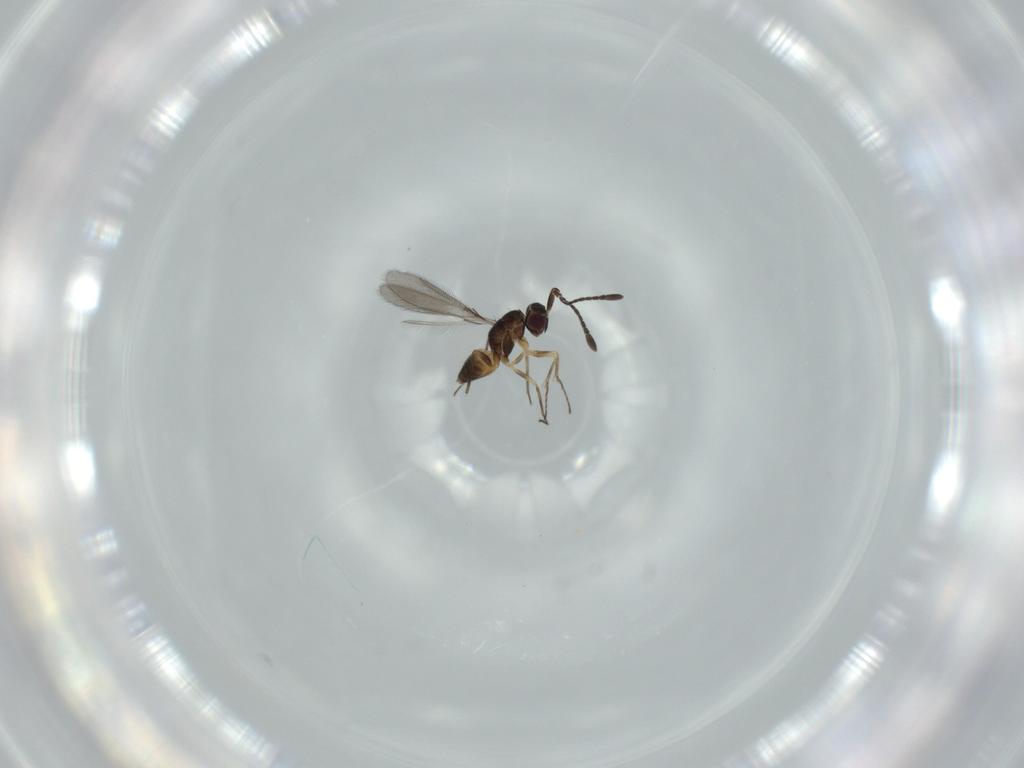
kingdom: Animalia
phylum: Arthropoda
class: Insecta
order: Hymenoptera
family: Mymaridae
